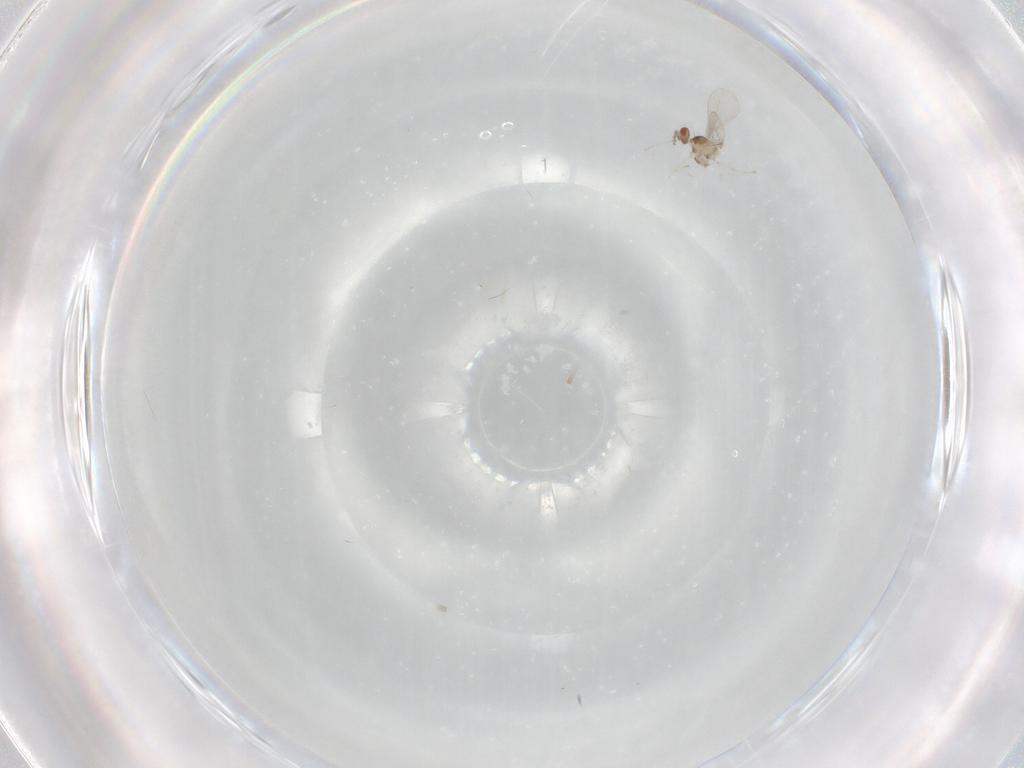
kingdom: Animalia
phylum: Arthropoda
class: Insecta
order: Diptera
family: Cecidomyiidae
